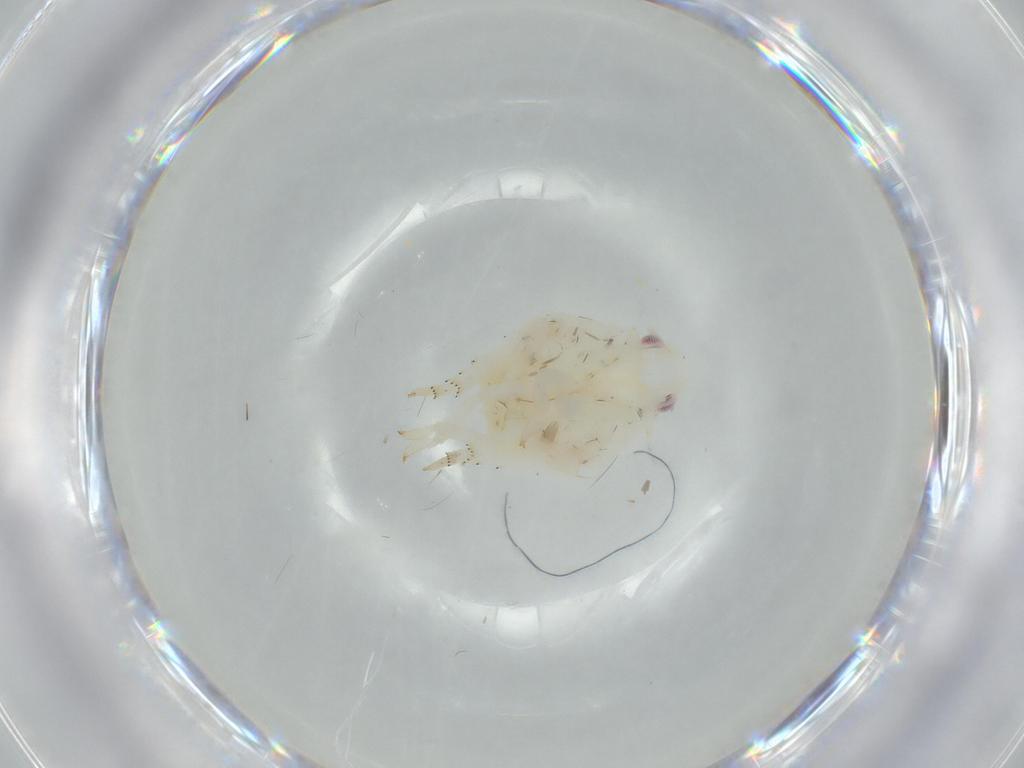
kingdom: Animalia
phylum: Arthropoda
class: Insecta
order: Hemiptera
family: Flatidae
